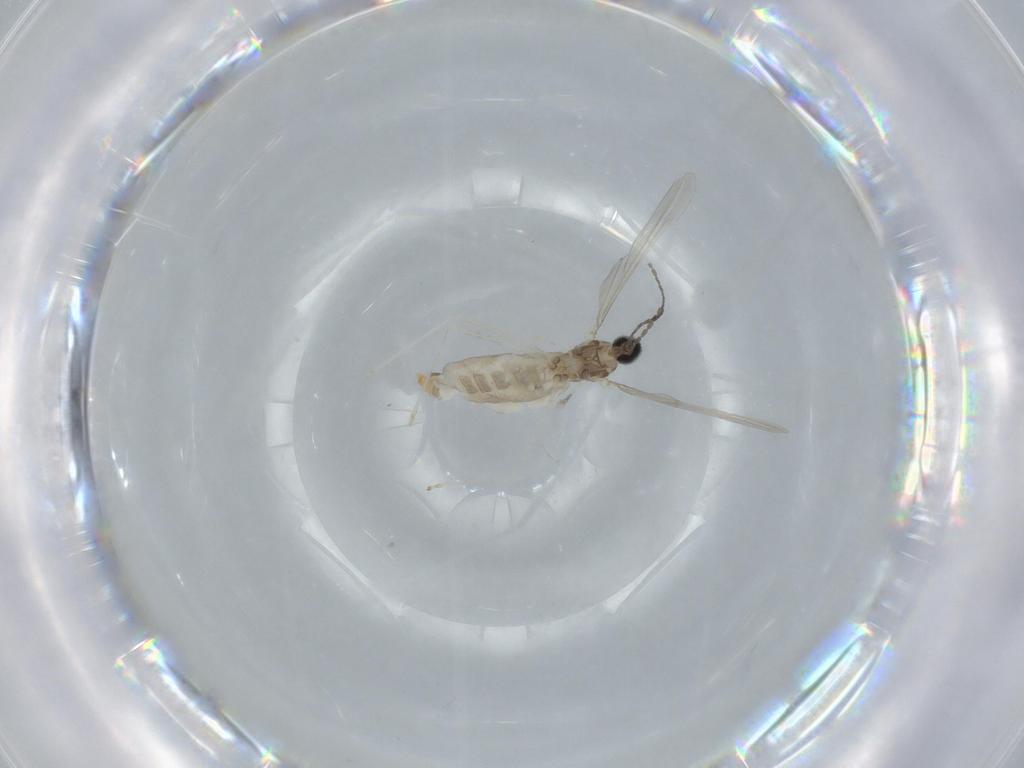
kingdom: Animalia
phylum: Arthropoda
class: Insecta
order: Diptera
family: Cecidomyiidae
